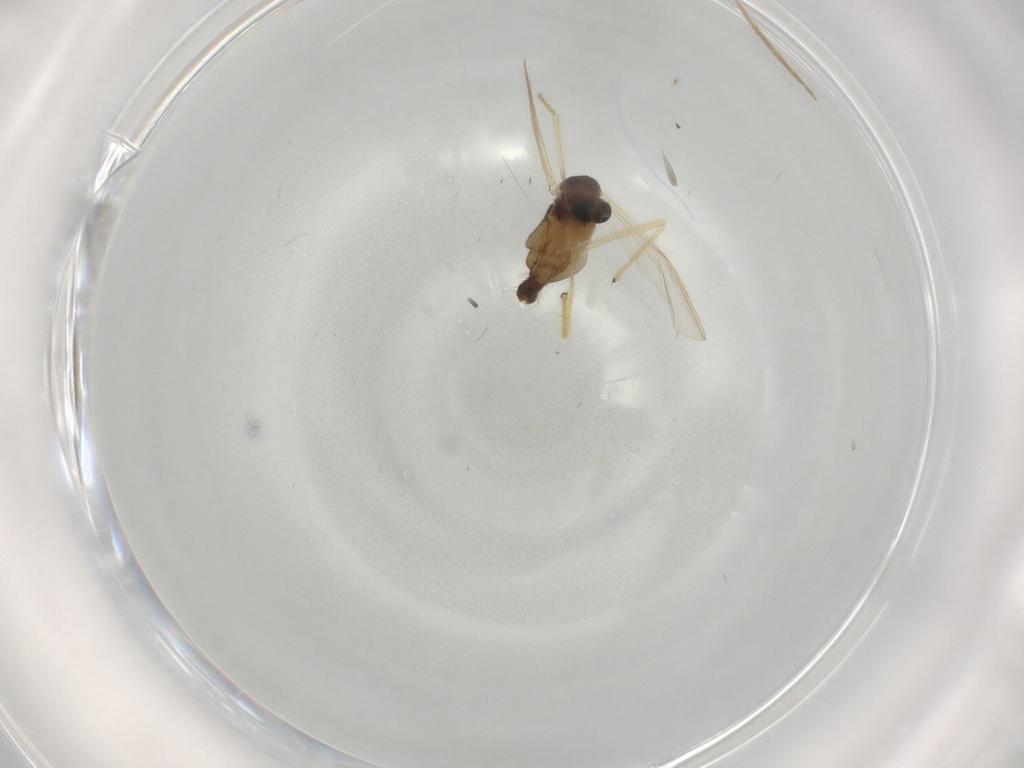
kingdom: Animalia
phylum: Arthropoda
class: Insecta
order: Diptera
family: Chironomidae
